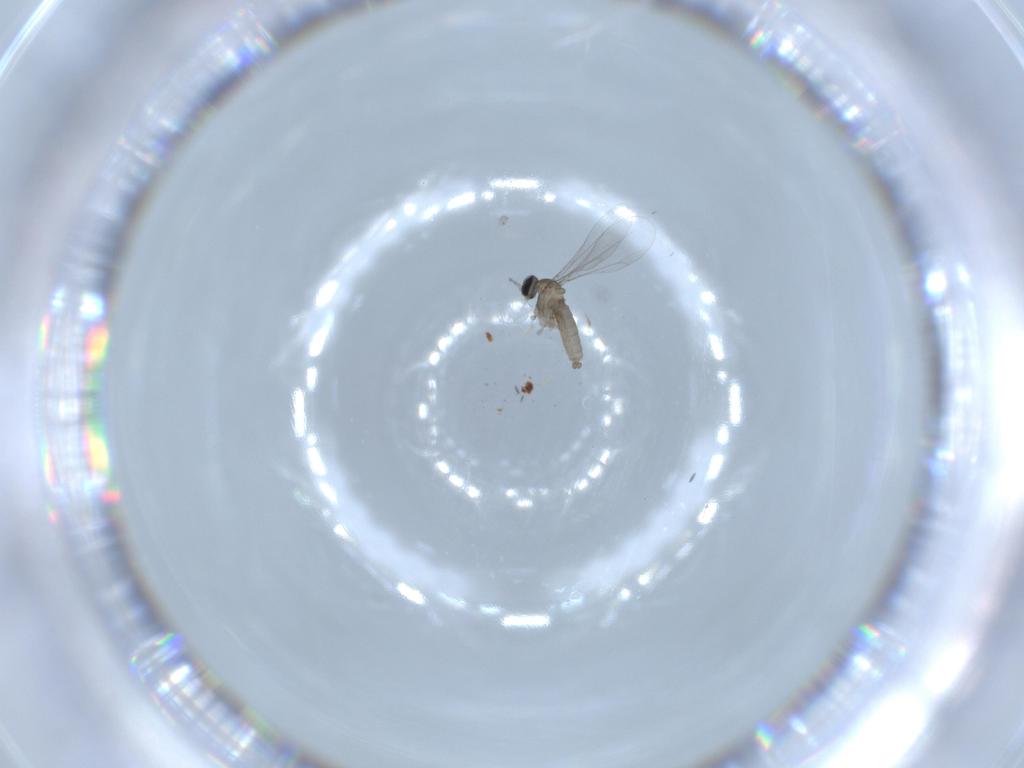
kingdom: Animalia
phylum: Arthropoda
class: Insecta
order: Diptera
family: Cecidomyiidae
